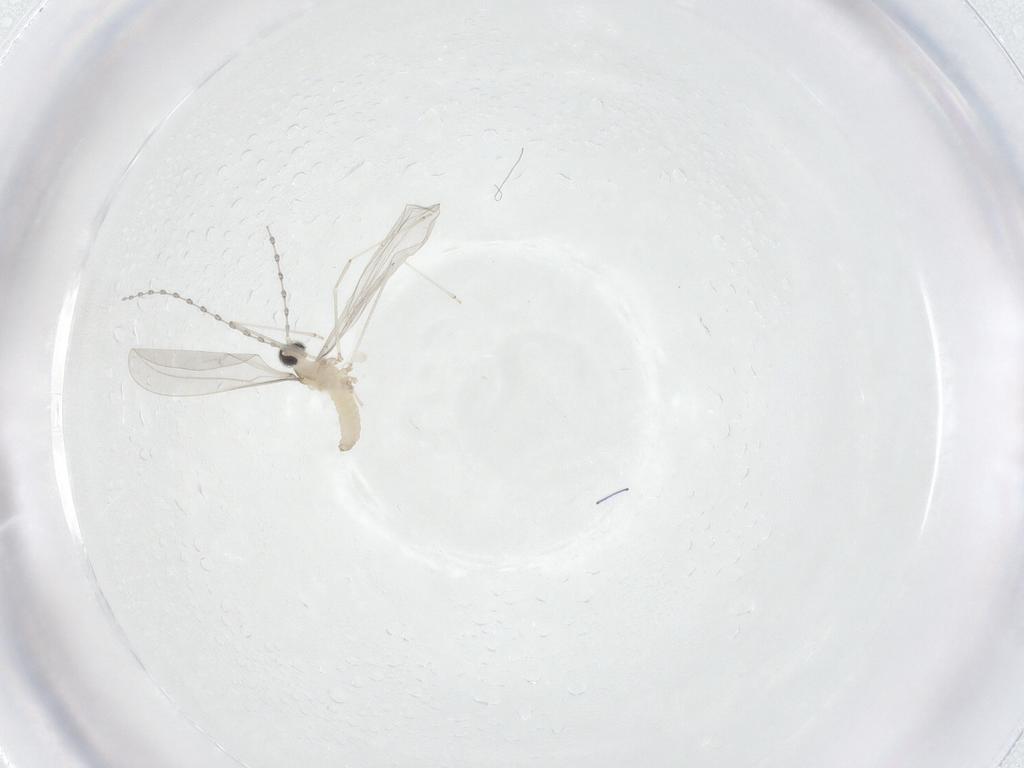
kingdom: Animalia
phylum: Arthropoda
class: Insecta
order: Diptera
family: Cecidomyiidae
